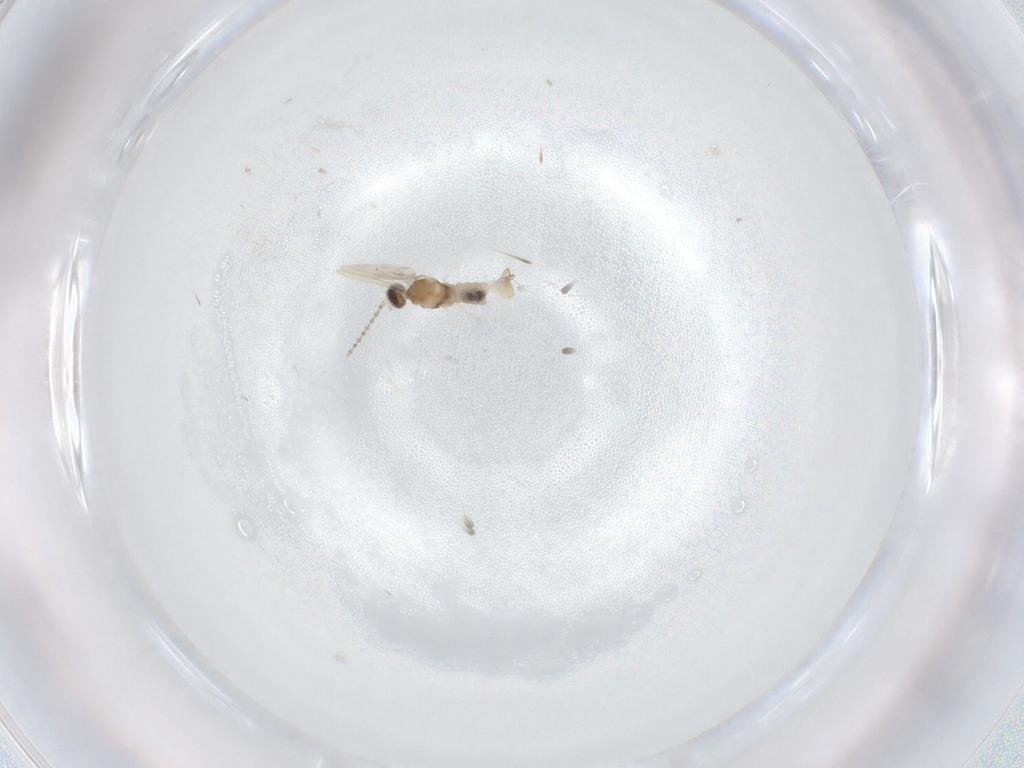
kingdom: Animalia
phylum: Arthropoda
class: Insecta
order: Diptera
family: Cecidomyiidae
